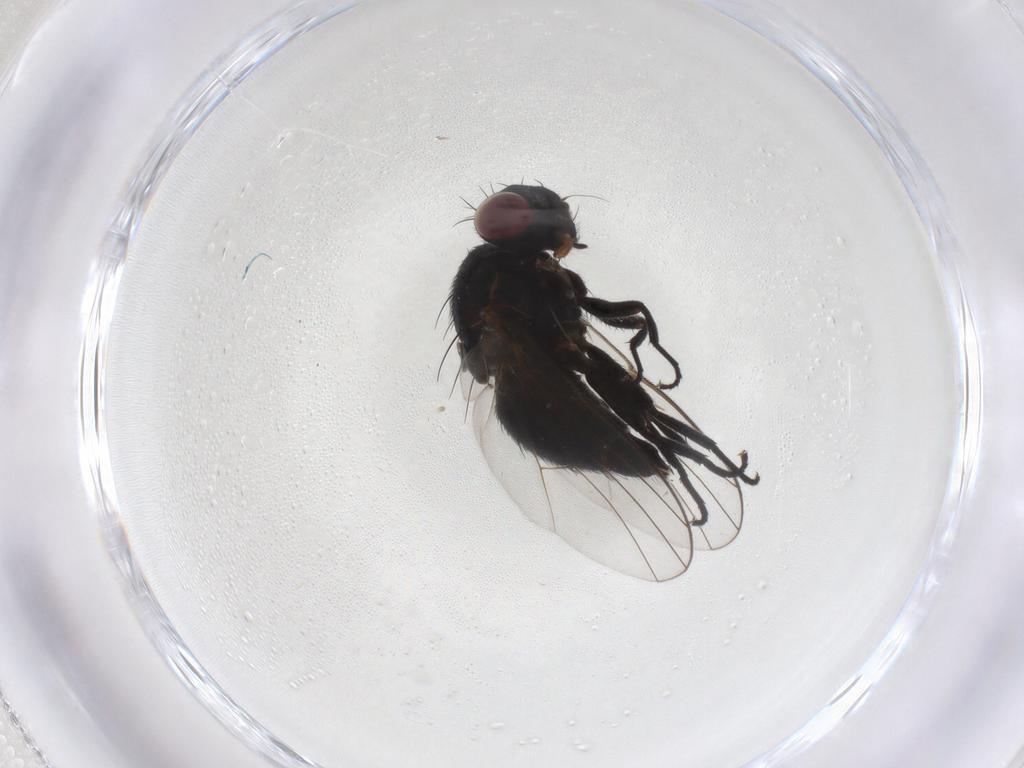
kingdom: Animalia
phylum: Arthropoda
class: Insecta
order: Diptera
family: Agromyzidae
